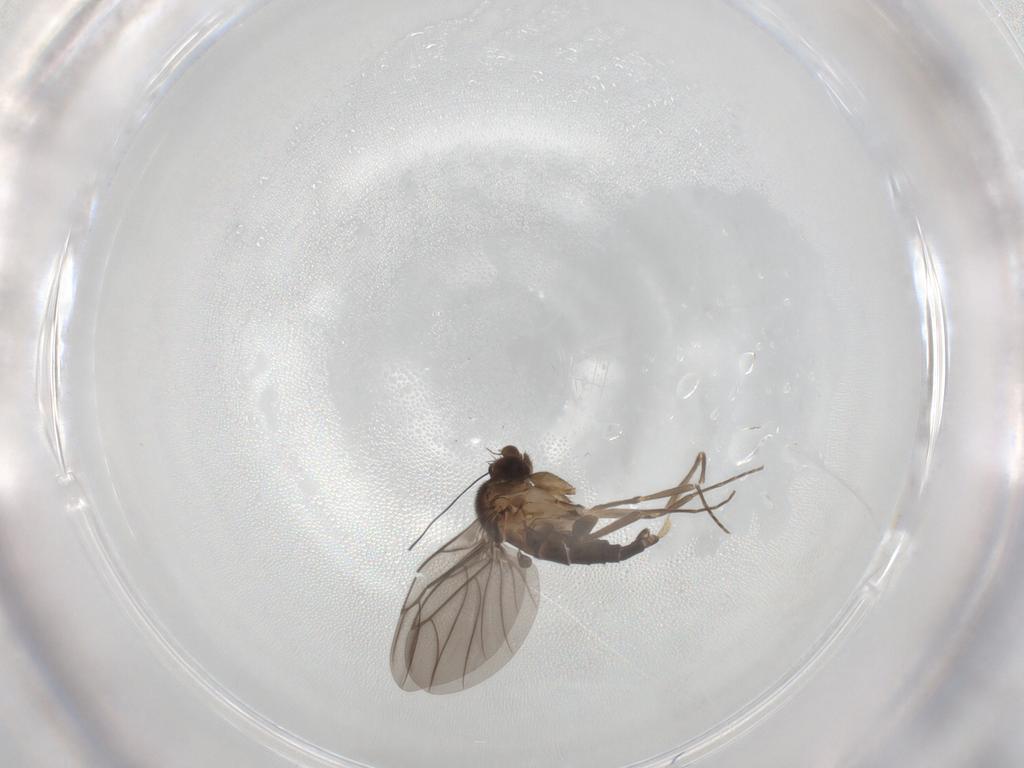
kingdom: Animalia
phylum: Arthropoda
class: Insecta
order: Diptera
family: Phoridae
